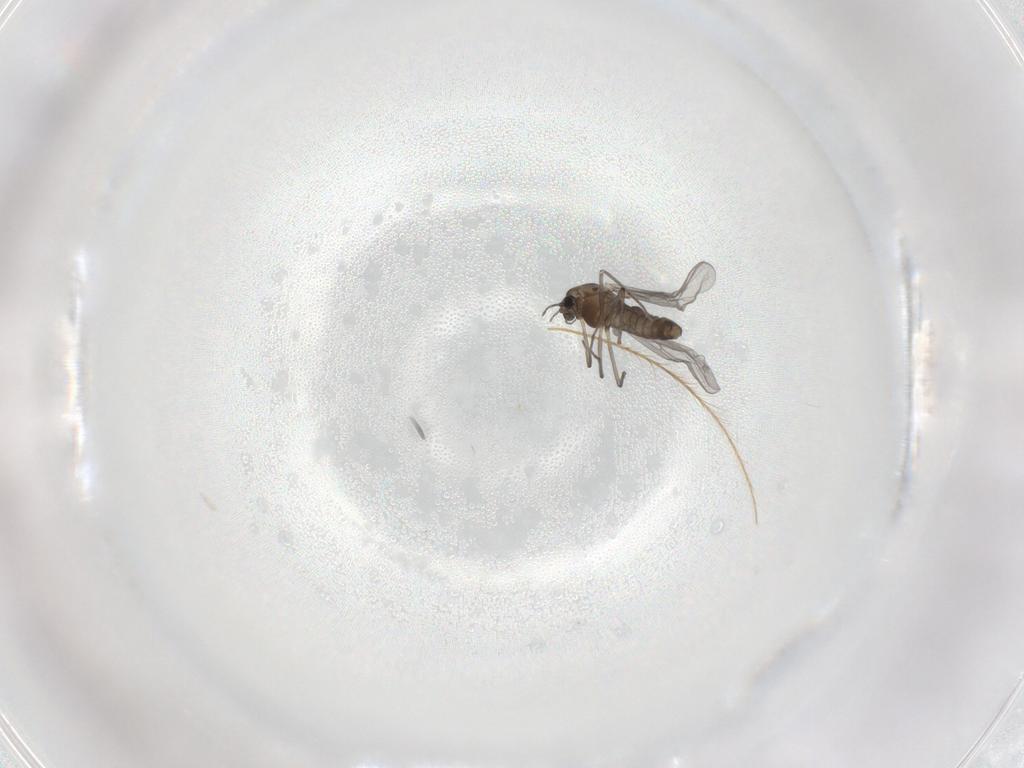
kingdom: Animalia
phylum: Arthropoda
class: Insecta
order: Diptera
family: Chironomidae
